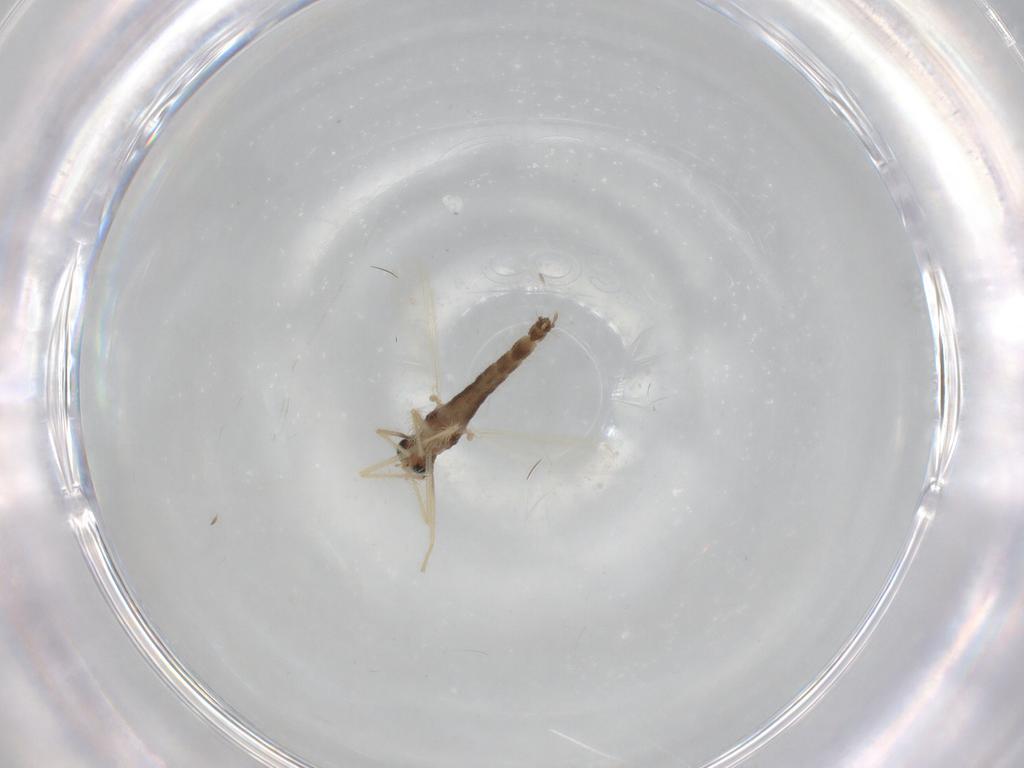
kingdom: Animalia
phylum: Arthropoda
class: Insecta
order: Diptera
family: Chironomidae
